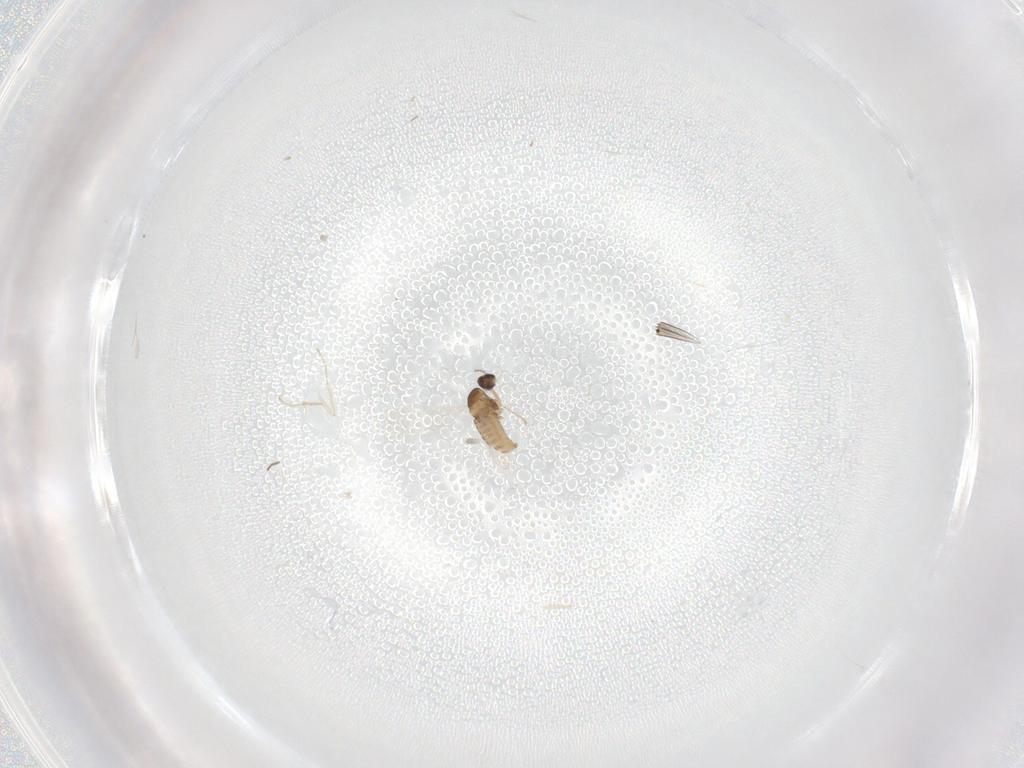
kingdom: Animalia
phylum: Arthropoda
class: Insecta
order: Diptera
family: Cecidomyiidae
